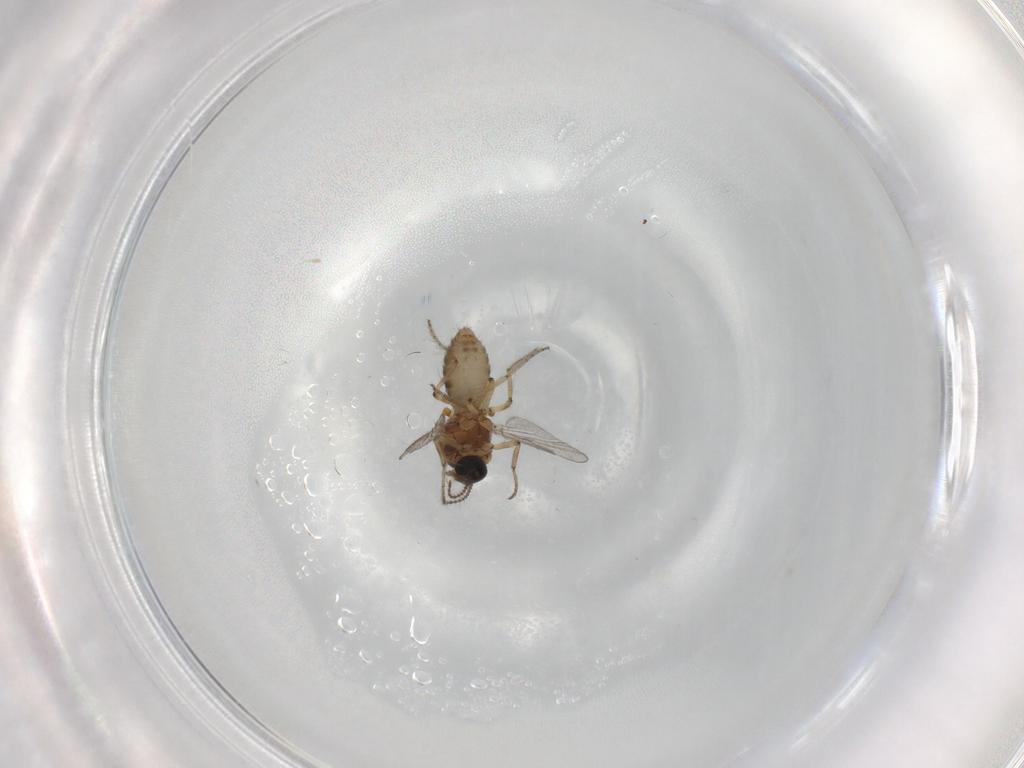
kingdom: Animalia
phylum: Arthropoda
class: Insecta
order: Diptera
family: Ceratopogonidae
